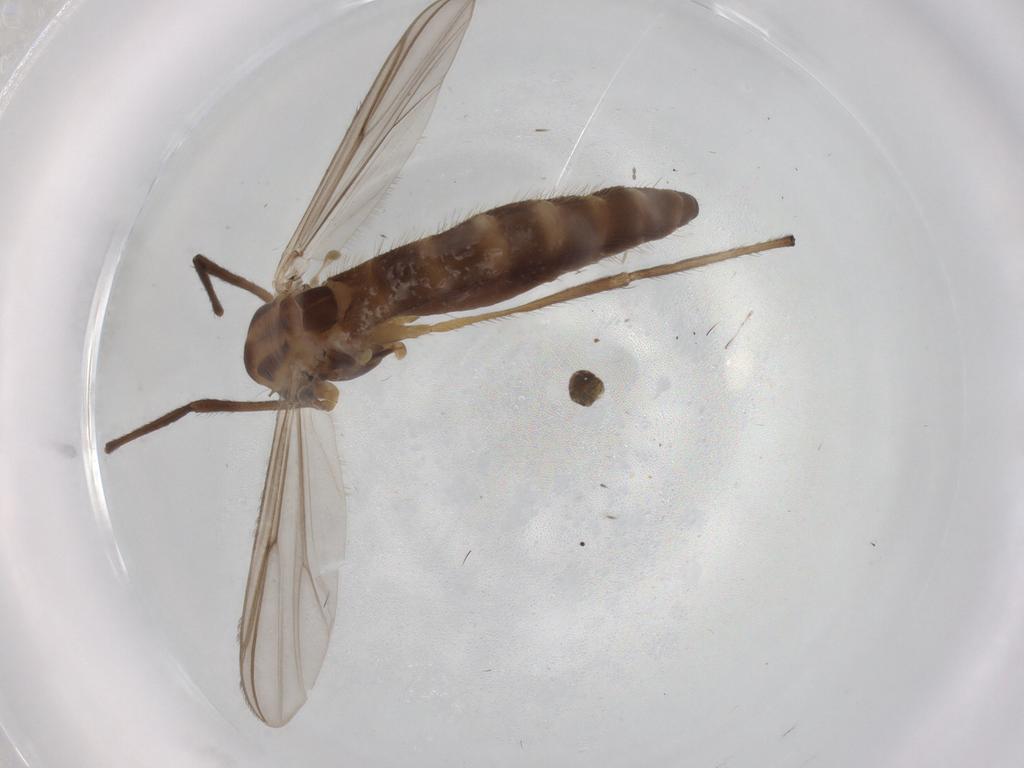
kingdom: Animalia
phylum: Arthropoda
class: Insecta
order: Diptera
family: Chironomidae
